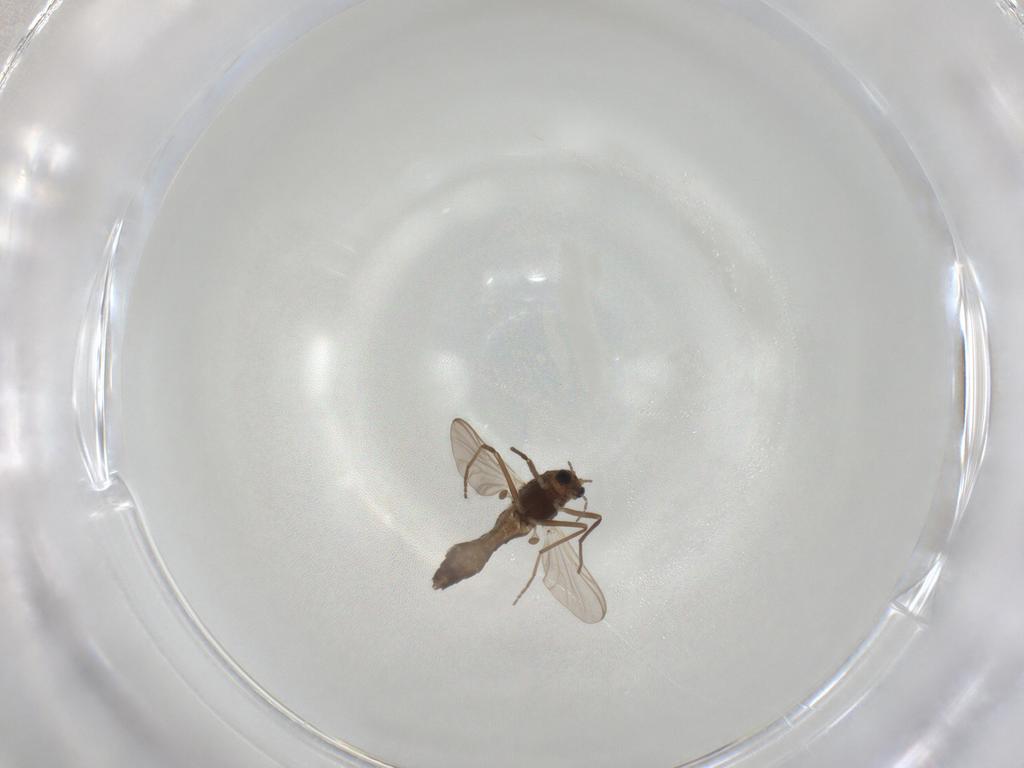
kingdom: Animalia
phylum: Arthropoda
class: Insecta
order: Diptera
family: Chironomidae
